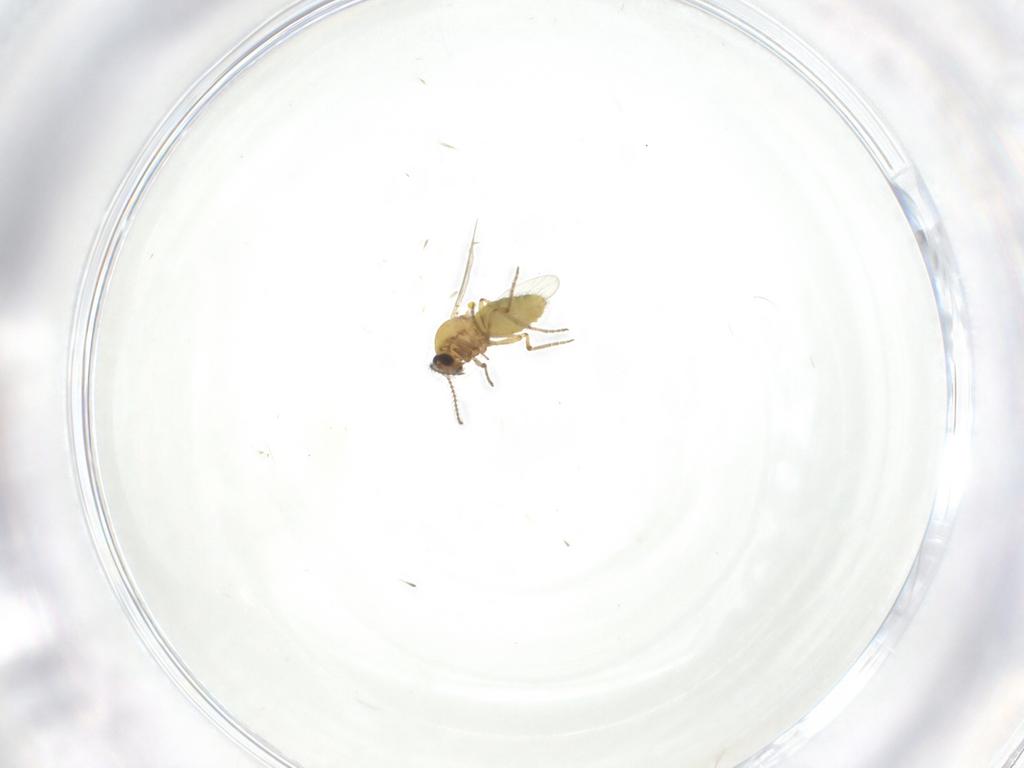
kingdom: Animalia
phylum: Arthropoda
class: Insecta
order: Diptera
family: Ceratopogonidae
